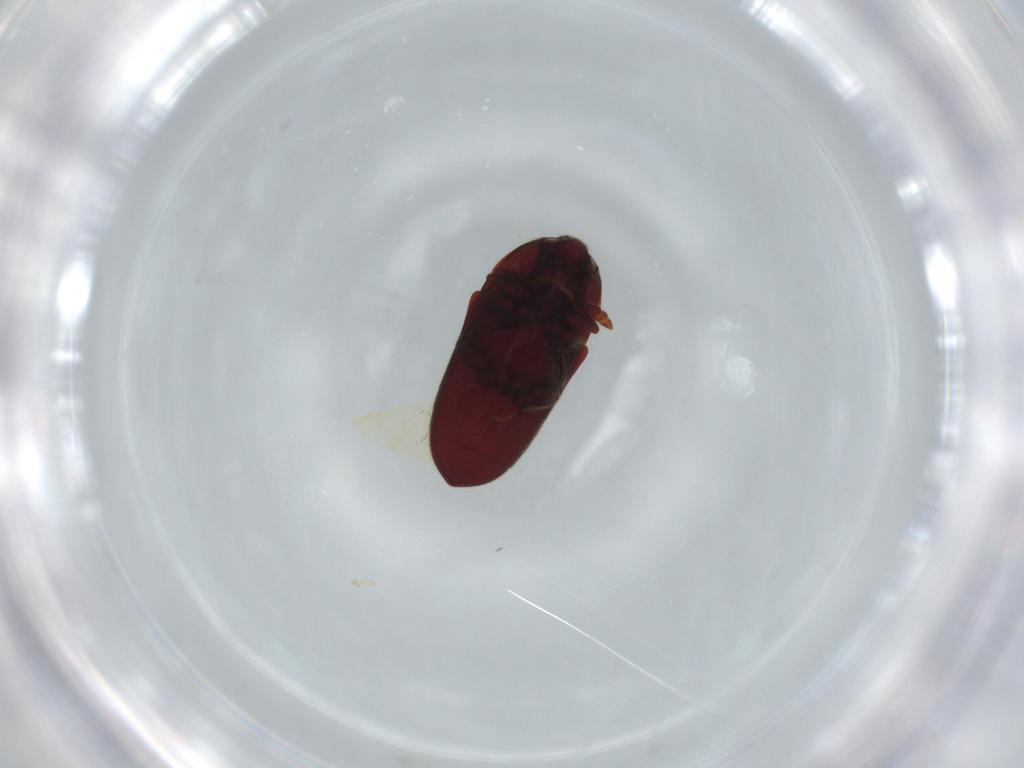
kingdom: Animalia
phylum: Arthropoda
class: Insecta
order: Coleoptera
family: Throscidae
